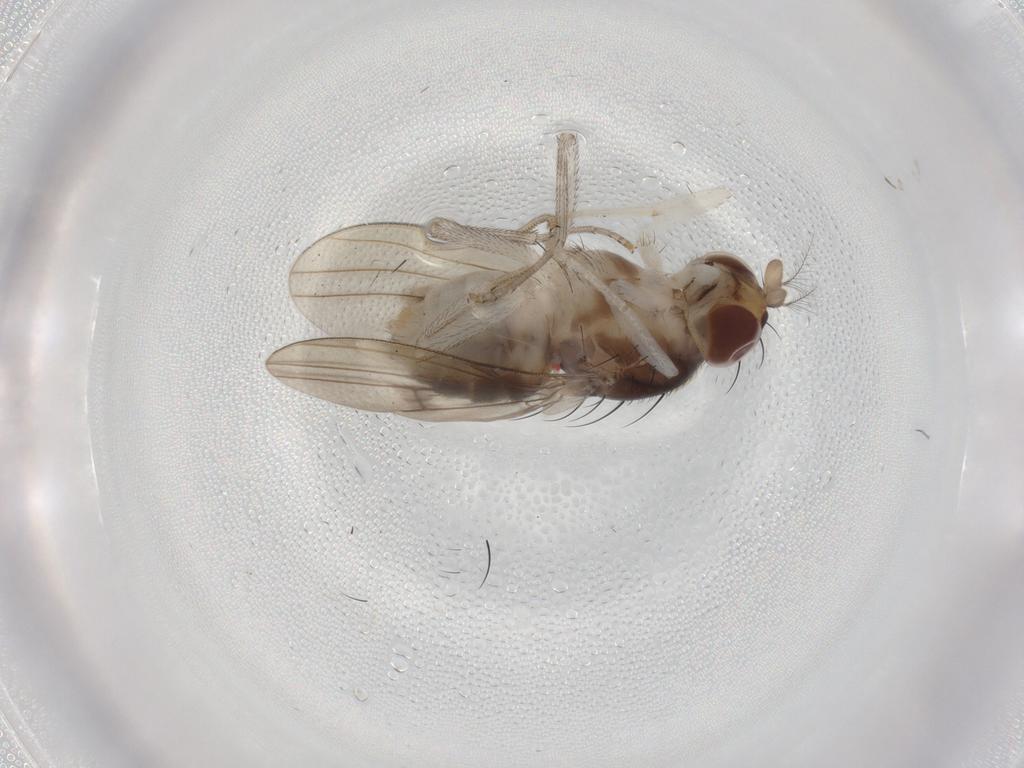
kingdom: Animalia
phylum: Arthropoda
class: Insecta
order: Diptera
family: Lauxaniidae
